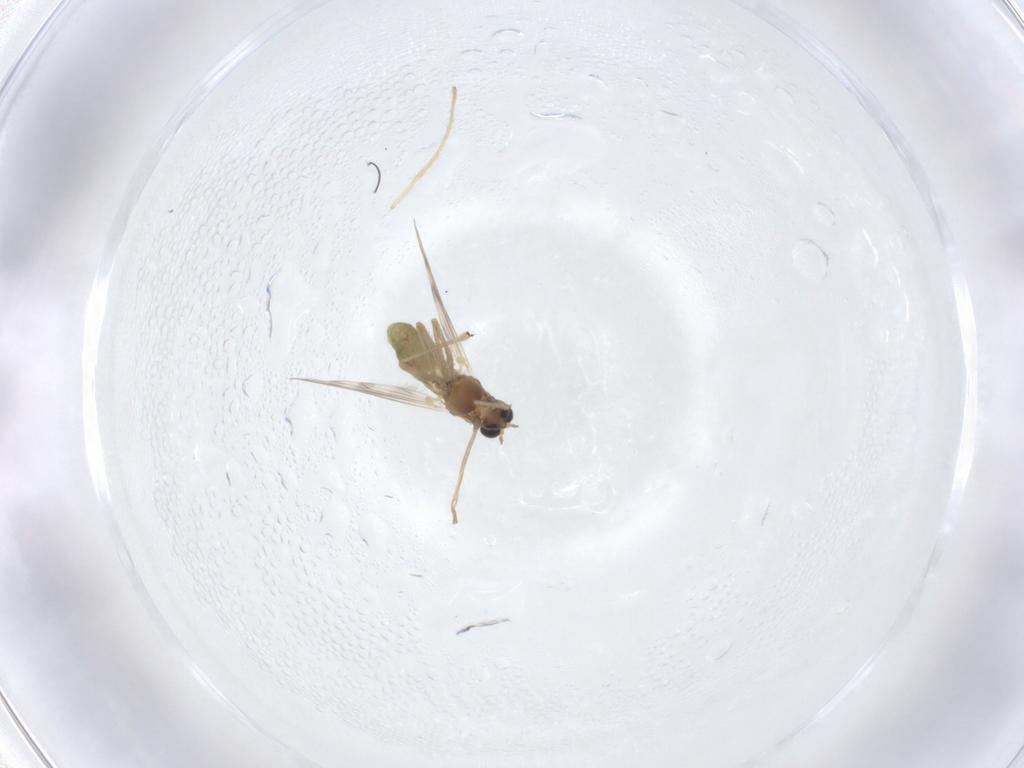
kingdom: Animalia
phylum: Arthropoda
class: Insecta
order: Diptera
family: Chironomidae
